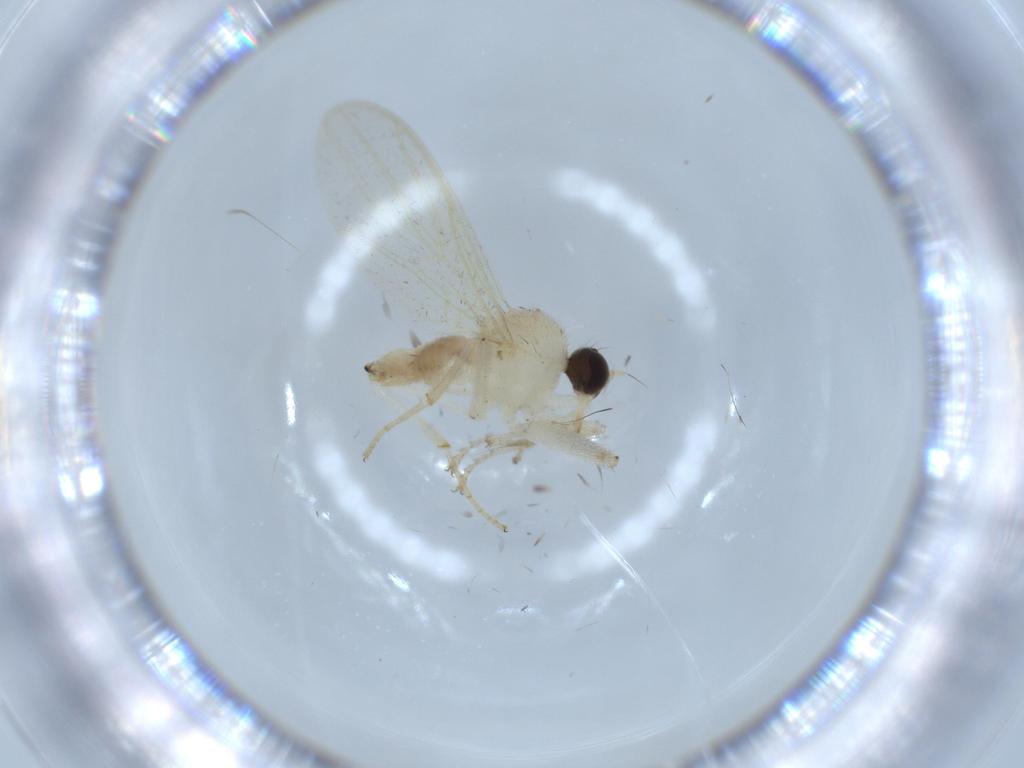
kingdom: Animalia
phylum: Arthropoda
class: Insecta
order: Diptera
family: Hybotidae
